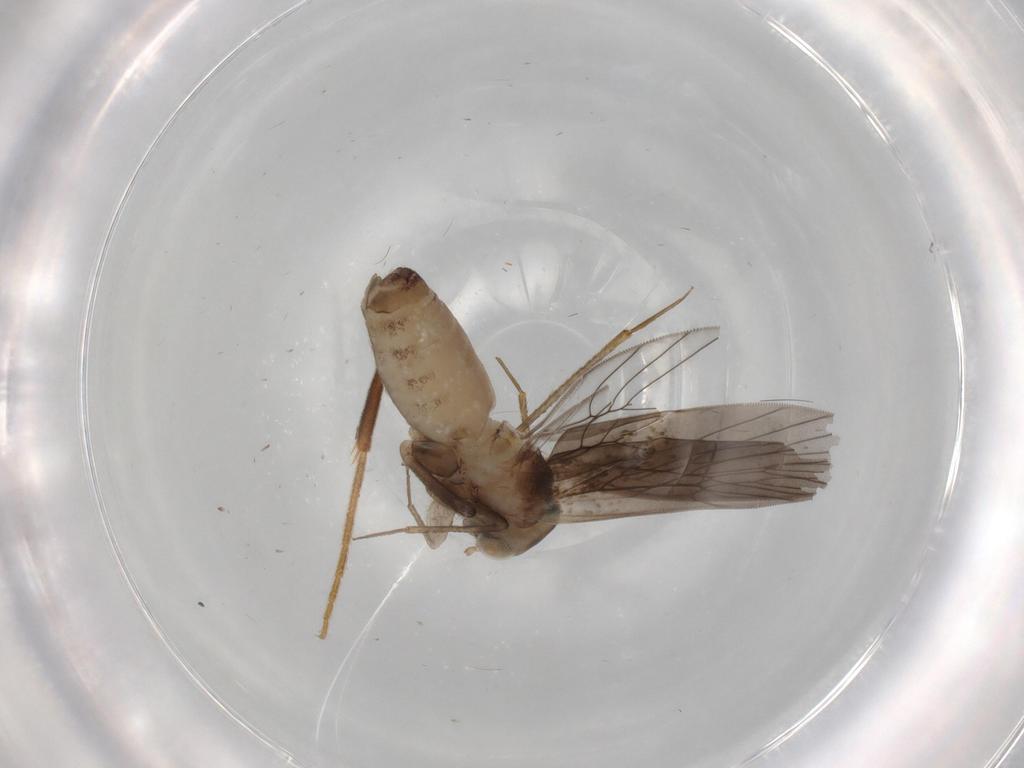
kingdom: Animalia
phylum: Arthropoda
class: Insecta
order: Psocodea
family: Lepidopsocidae
